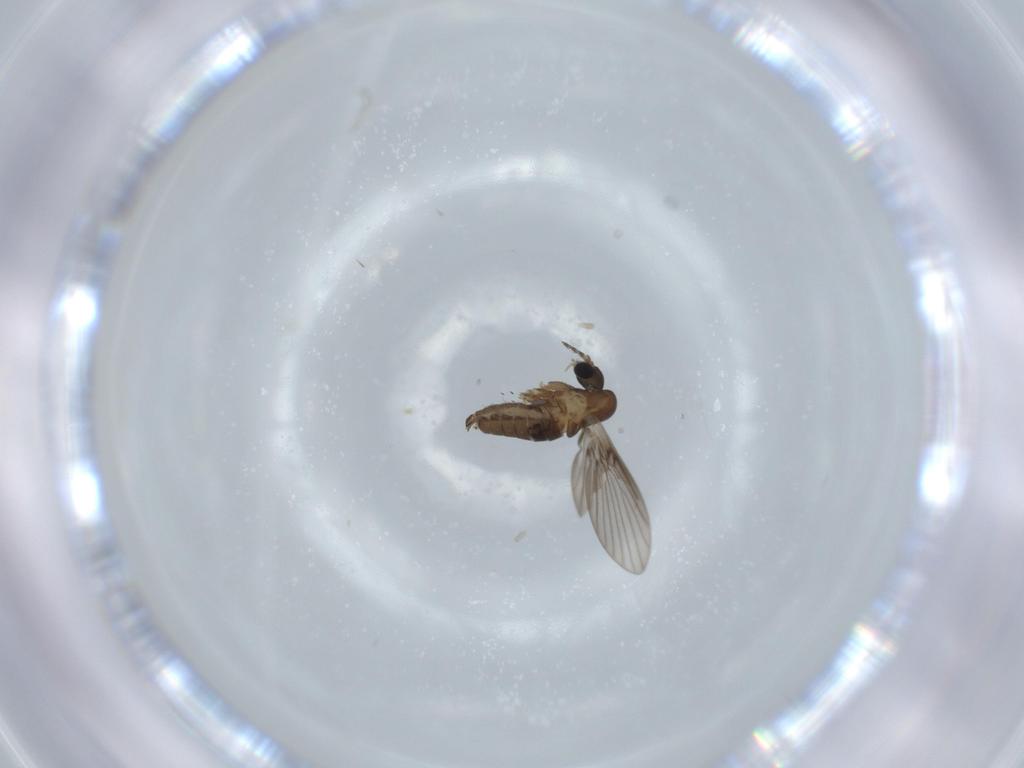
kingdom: Animalia
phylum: Arthropoda
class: Insecta
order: Diptera
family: Psychodidae
